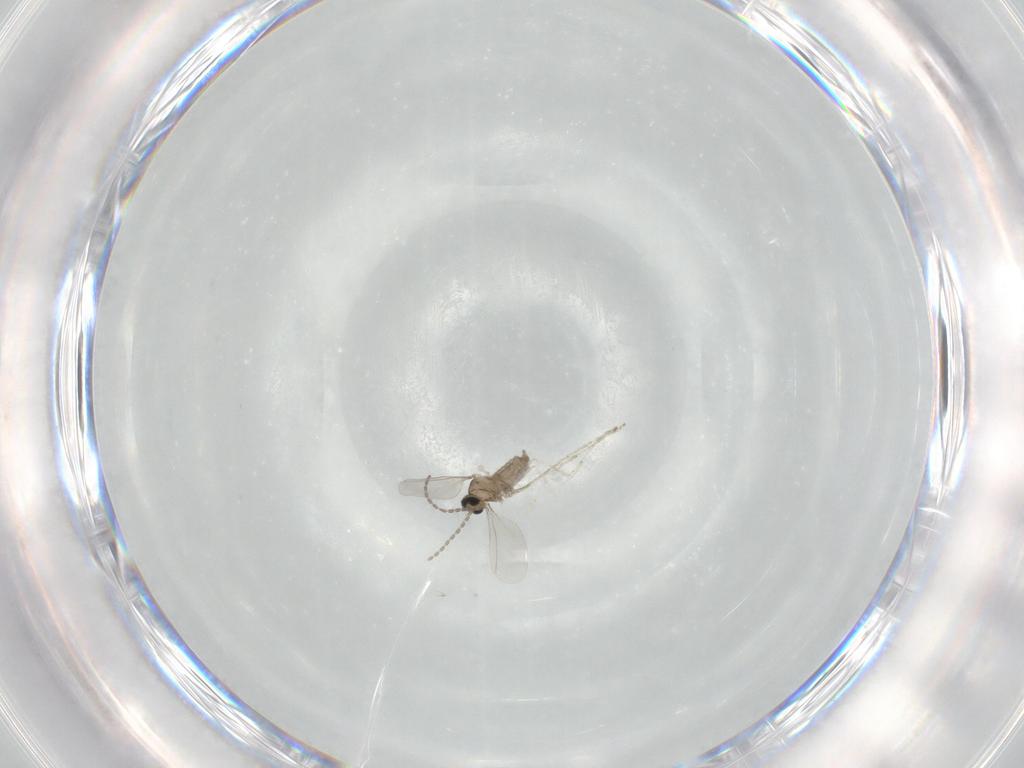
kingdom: Animalia
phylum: Arthropoda
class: Insecta
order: Diptera
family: Cecidomyiidae
